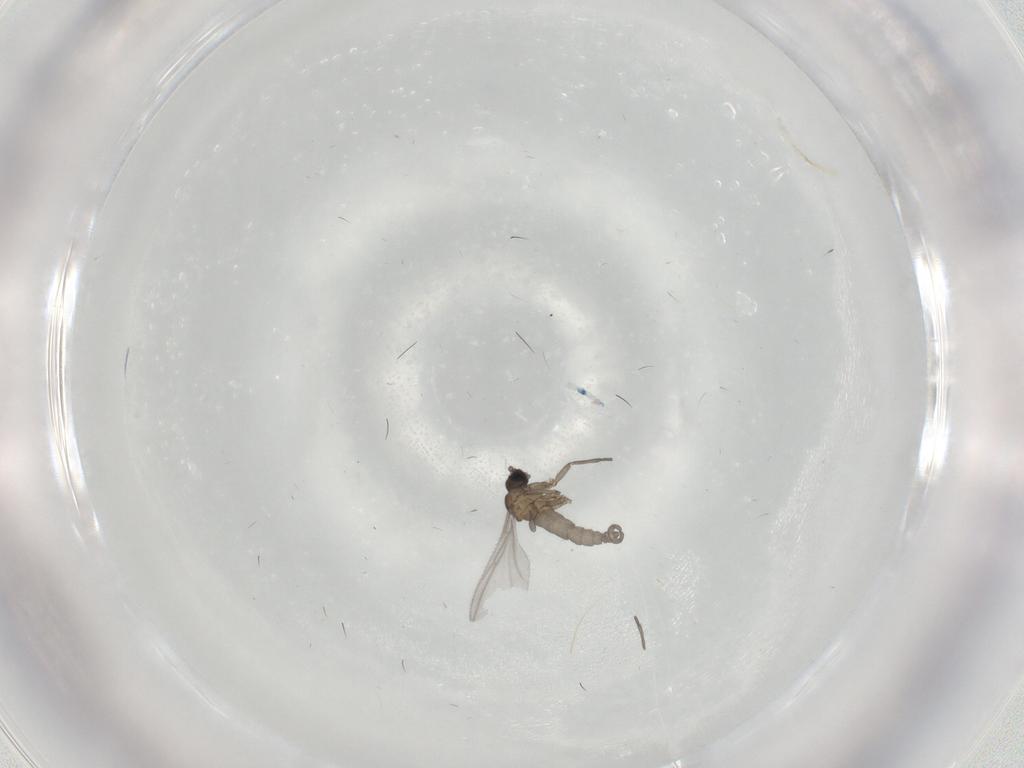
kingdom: Animalia
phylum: Arthropoda
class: Insecta
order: Diptera
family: Sciaridae
